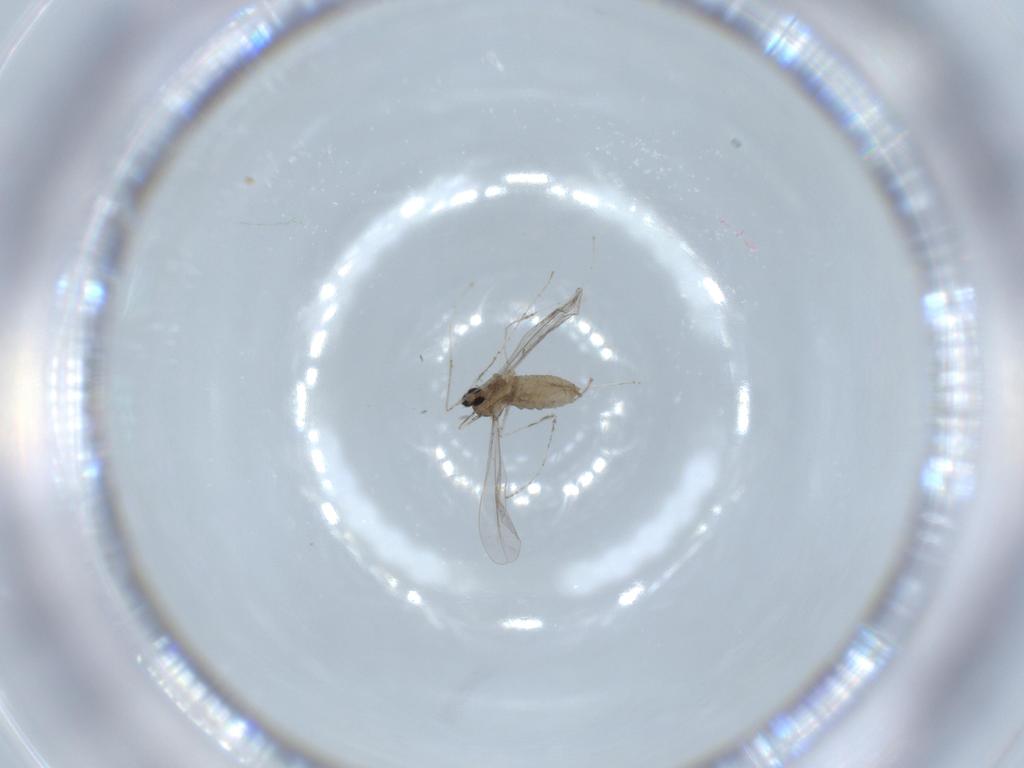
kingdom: Animalia
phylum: Arthropoda
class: Insecta
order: Diptera
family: Cecidomyiidae
